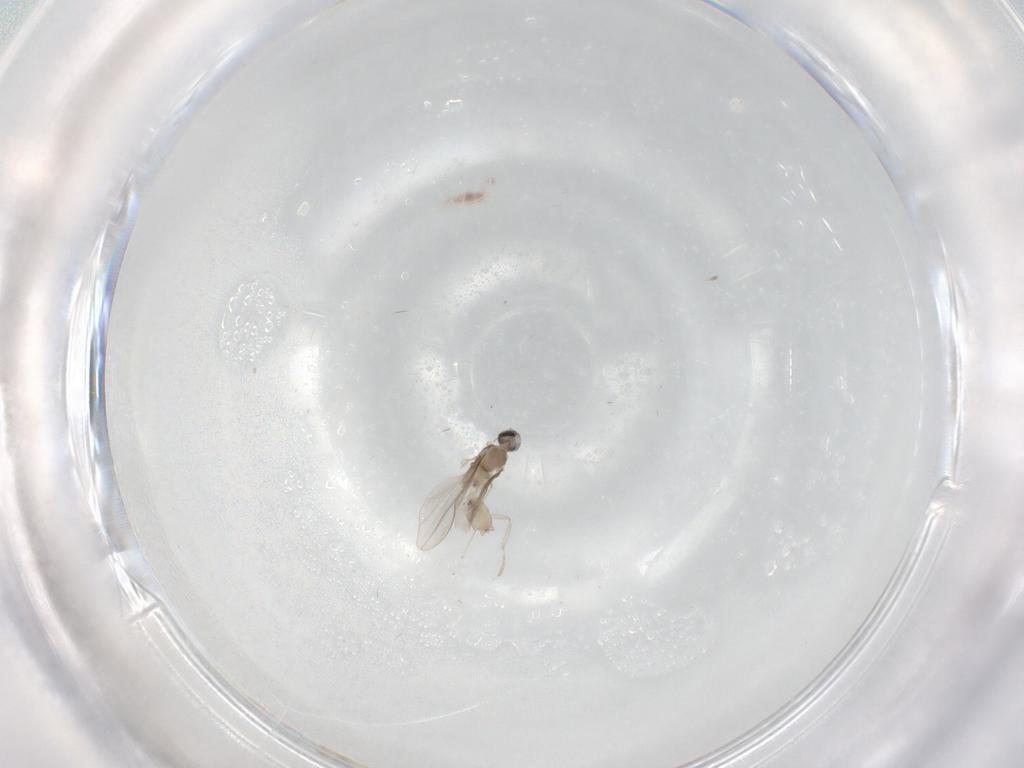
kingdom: Animalia
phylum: Arthropoda
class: Insecta
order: Diptera
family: Cecidomyiidae
